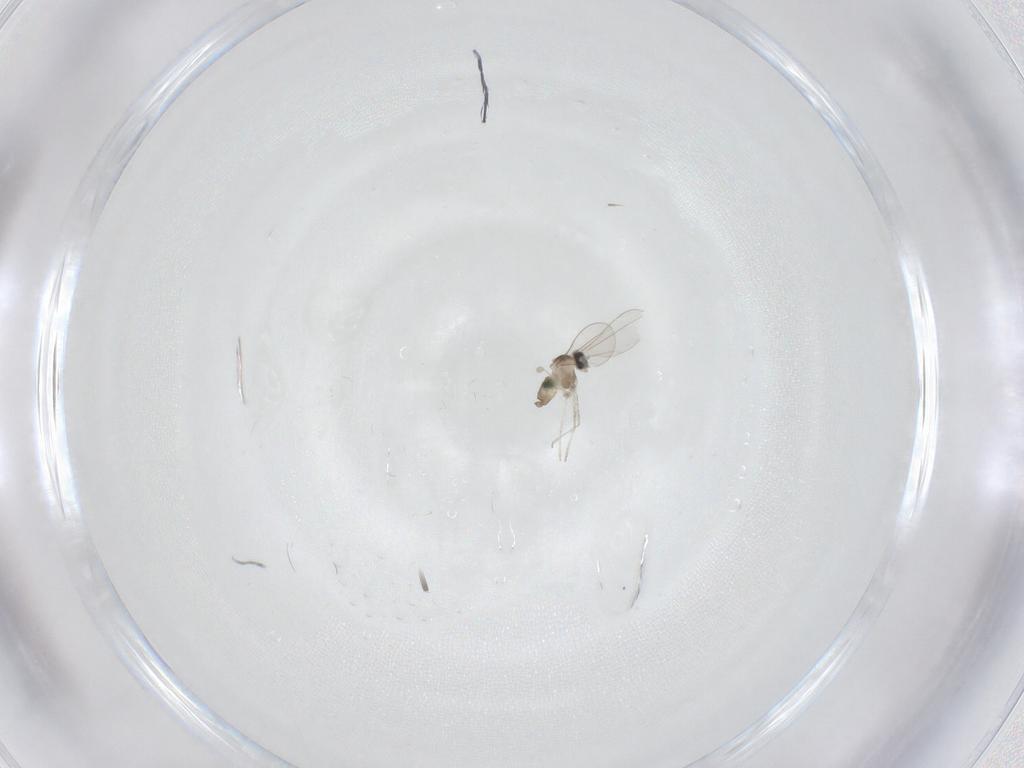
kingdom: Animalia
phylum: Arthropoda
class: Insecta
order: Diptera
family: Cecidomyiidae
